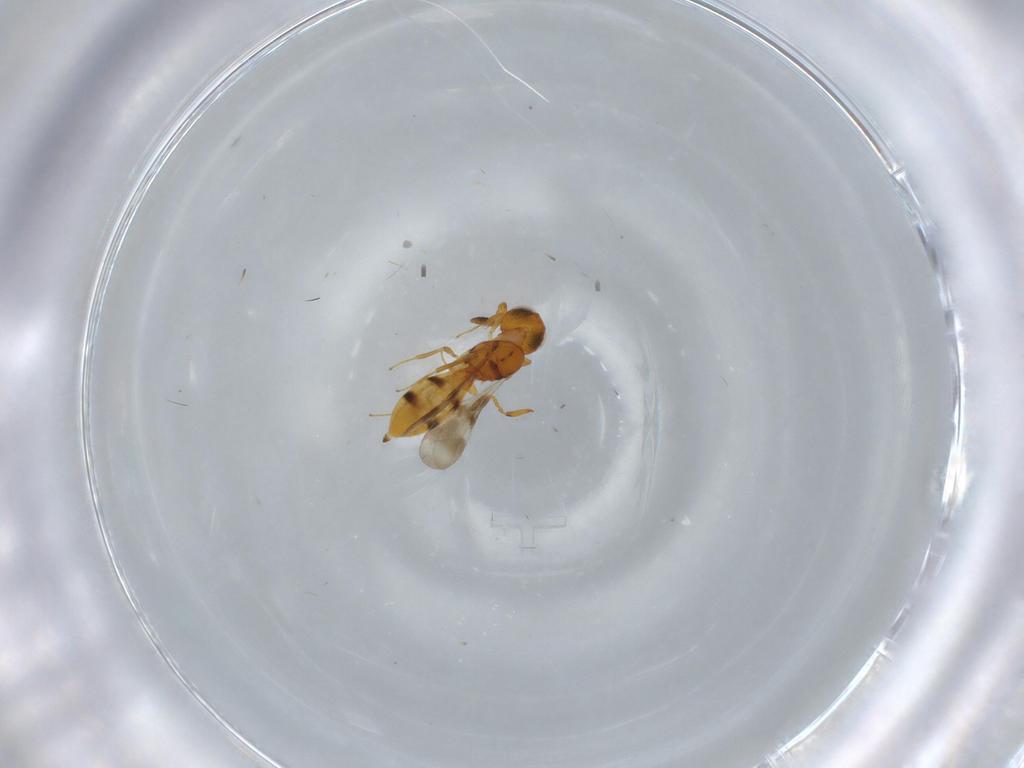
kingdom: Animalia
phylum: Arthropoda
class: Insecta
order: Hymenoptera
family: Scelionidae
